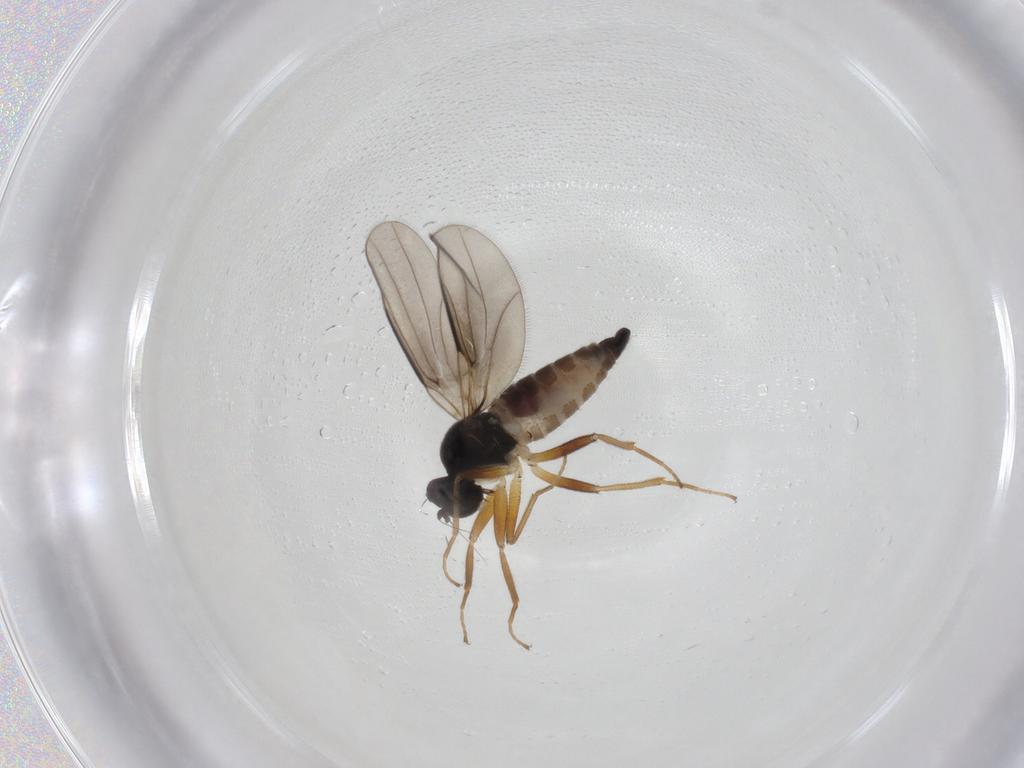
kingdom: Animalia
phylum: Arthropoda
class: Insecta
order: Diptera
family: Hybotidae
